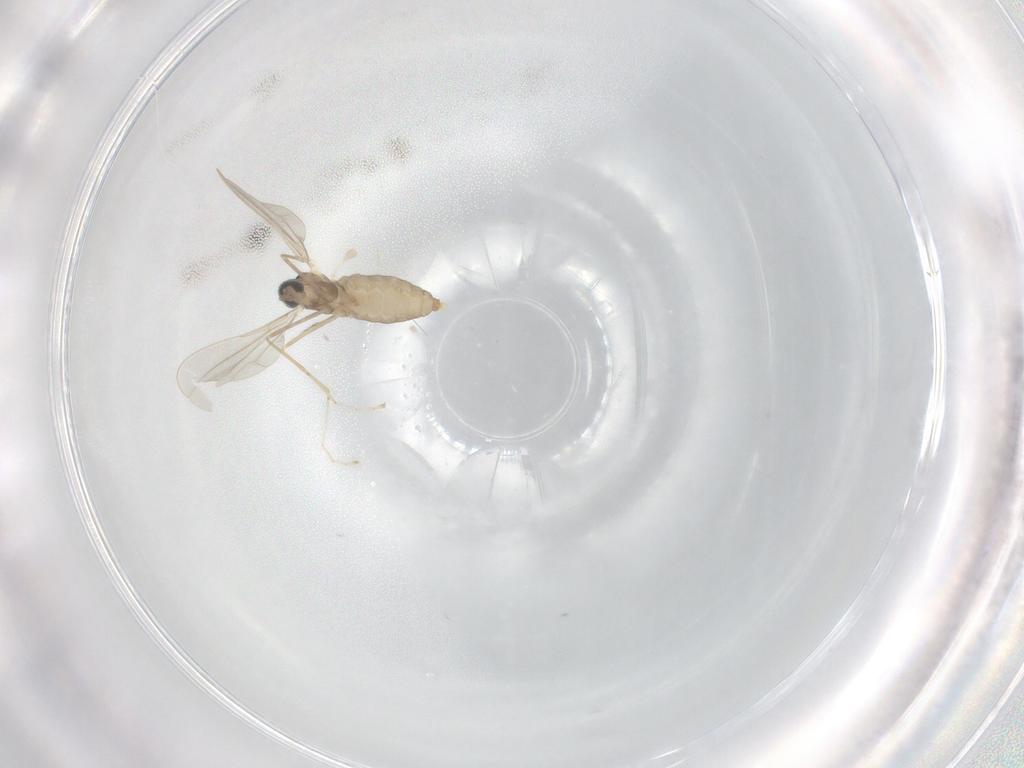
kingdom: Animalia
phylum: Arthropoda
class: Insecta
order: Diptera
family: Cecidomyiidae
